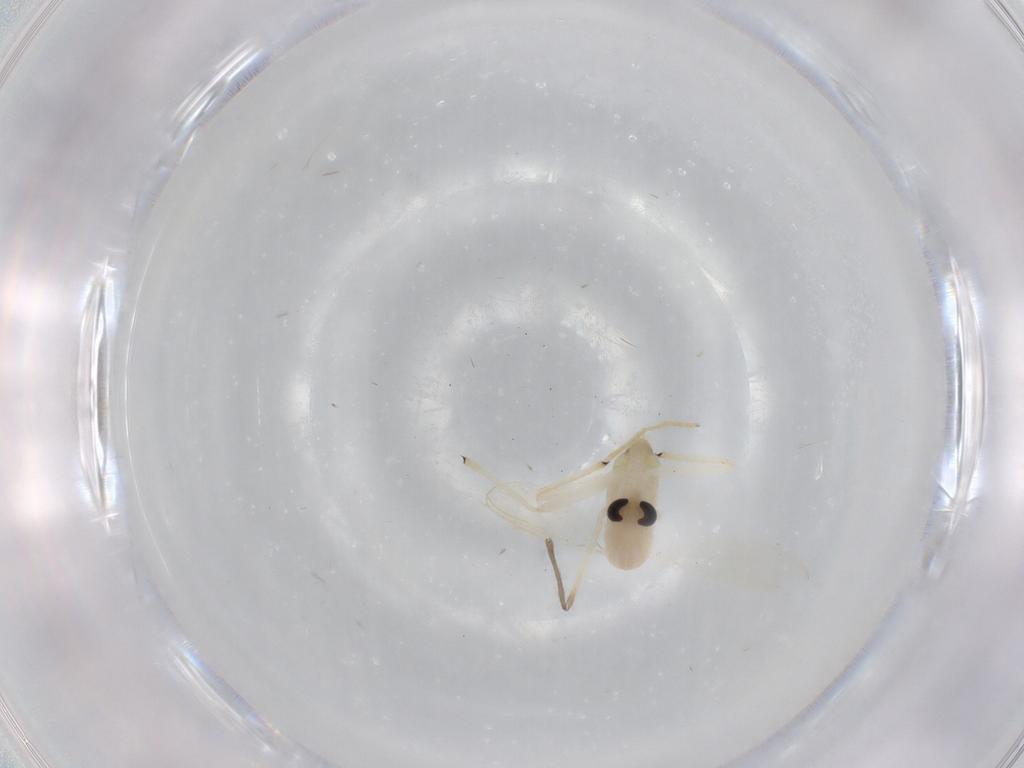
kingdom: Animalia
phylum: Arthropoda
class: Insecta
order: Diptera
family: Chironomidae
